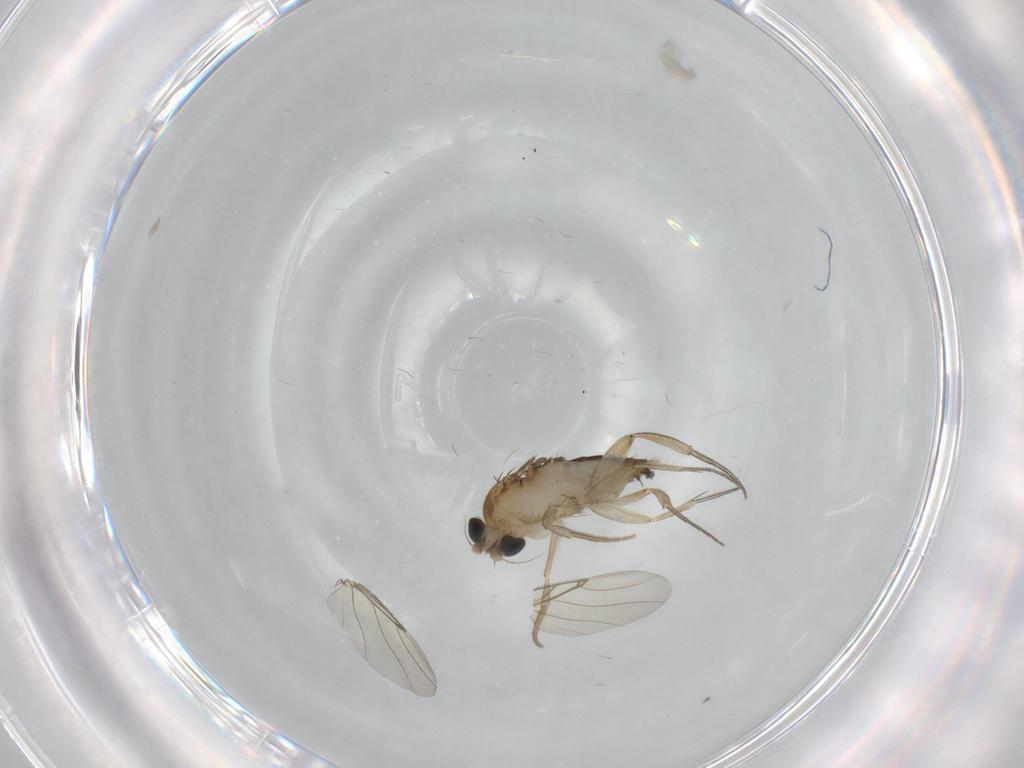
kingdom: Animalia
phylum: Arthropoda
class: Insecta
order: Diptera
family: Phoridae
